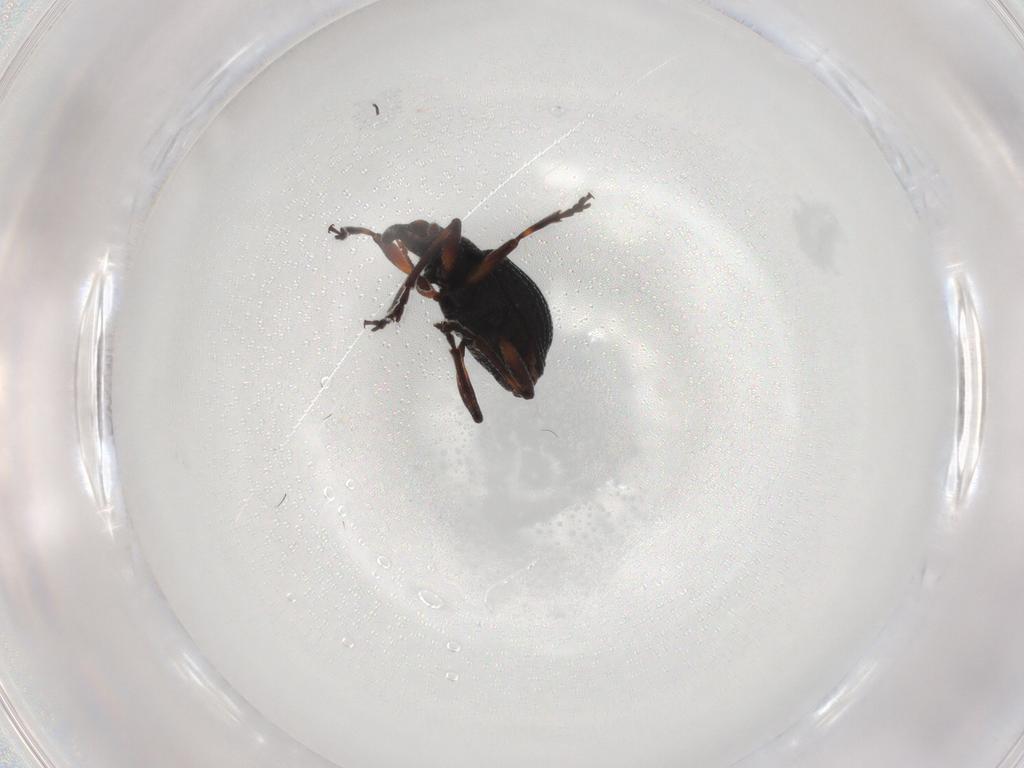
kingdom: Animalia
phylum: Arthropoda
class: Insecta
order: Coleoptera
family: Brentidae
